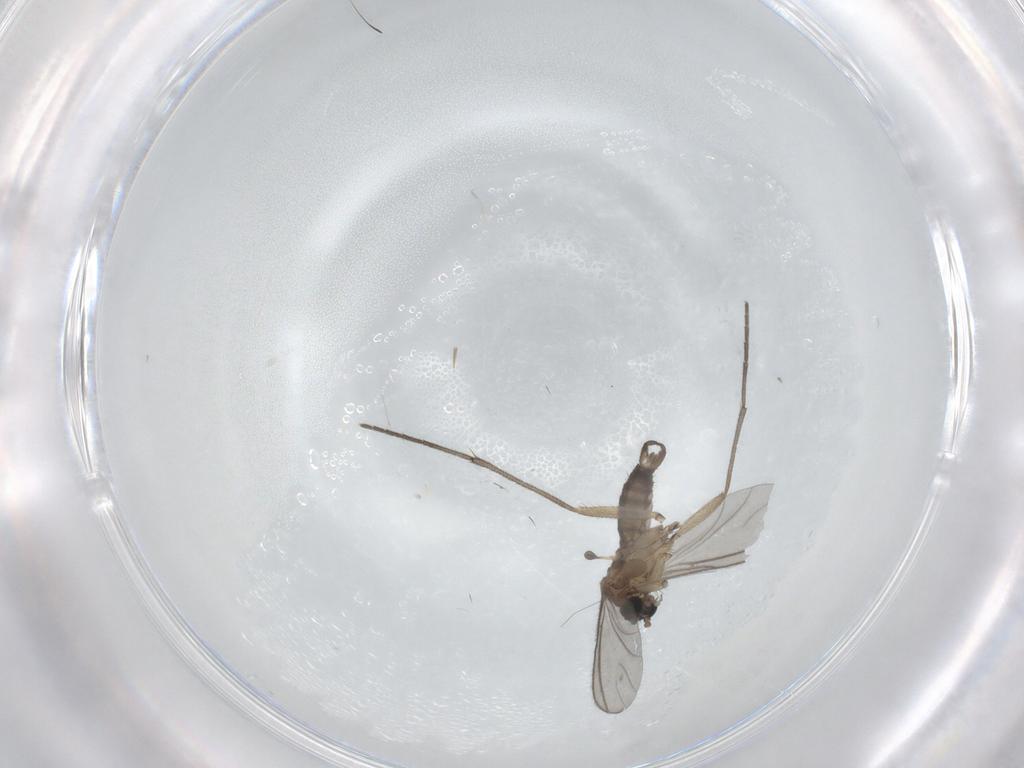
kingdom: Animalia
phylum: Arthropoda
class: Insecta
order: Diptera
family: Sciaridae
